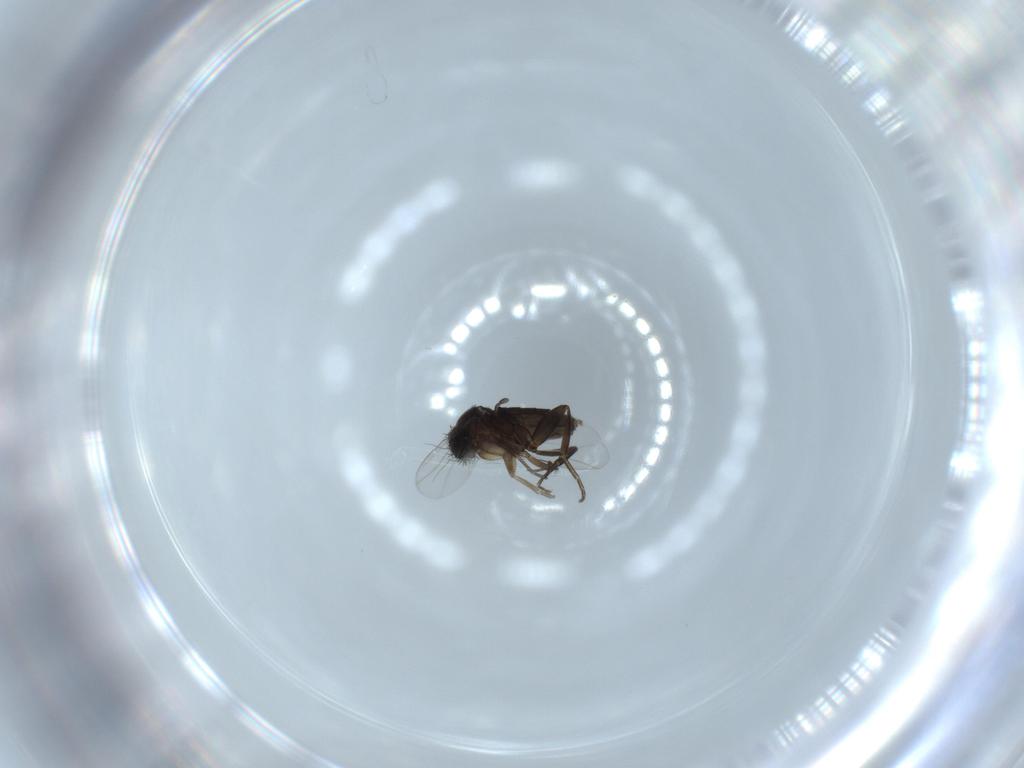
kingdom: Animalia
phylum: Arthropoda
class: Insecta
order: Diptera
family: Phoridae
